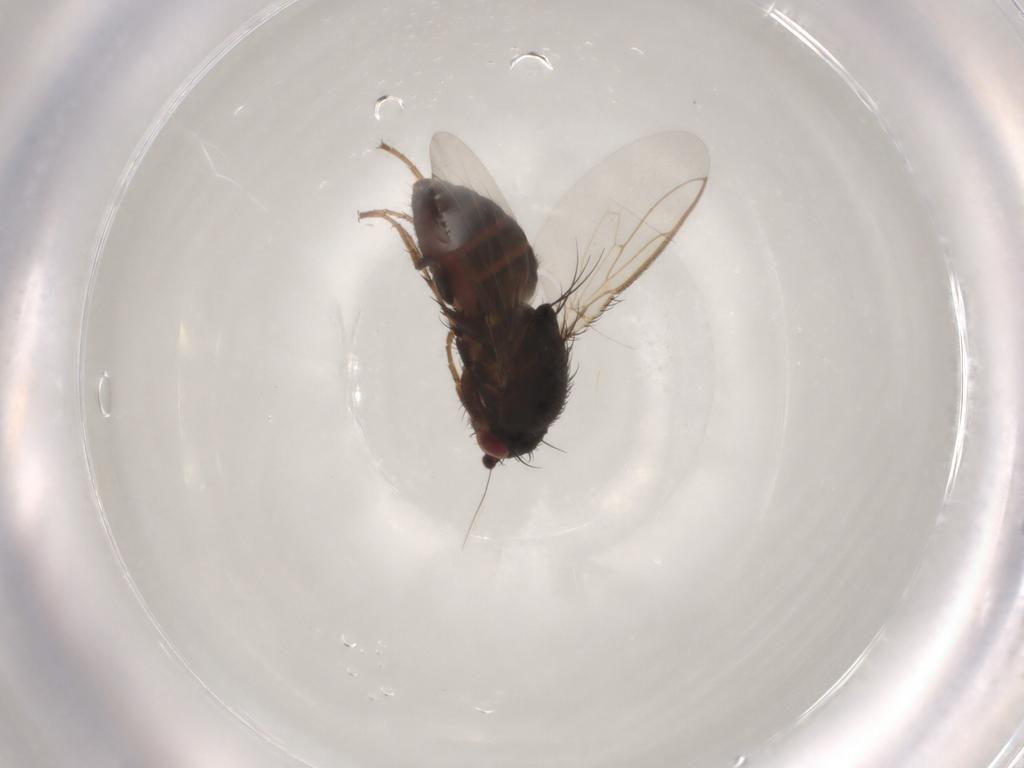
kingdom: Animalia
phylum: Arthropoda
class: Insecta
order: Diptera
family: Sphaeroceridae
